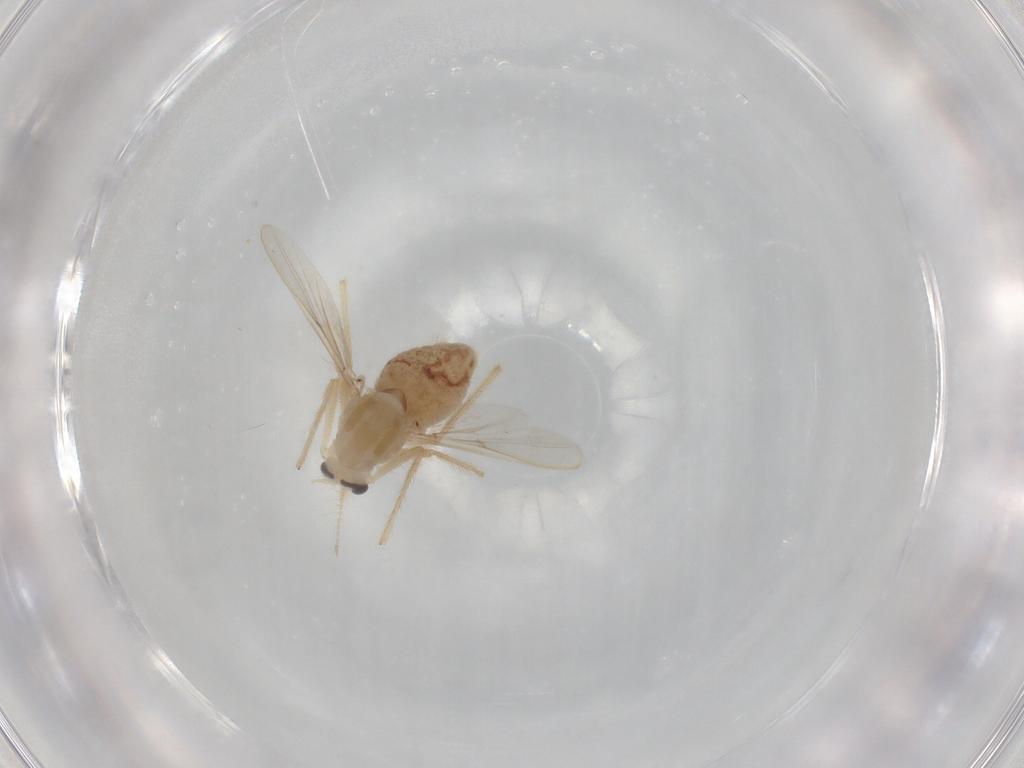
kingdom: Animalia
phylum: Arthropoda
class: Insecta
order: Diptera
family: Chironomidae
